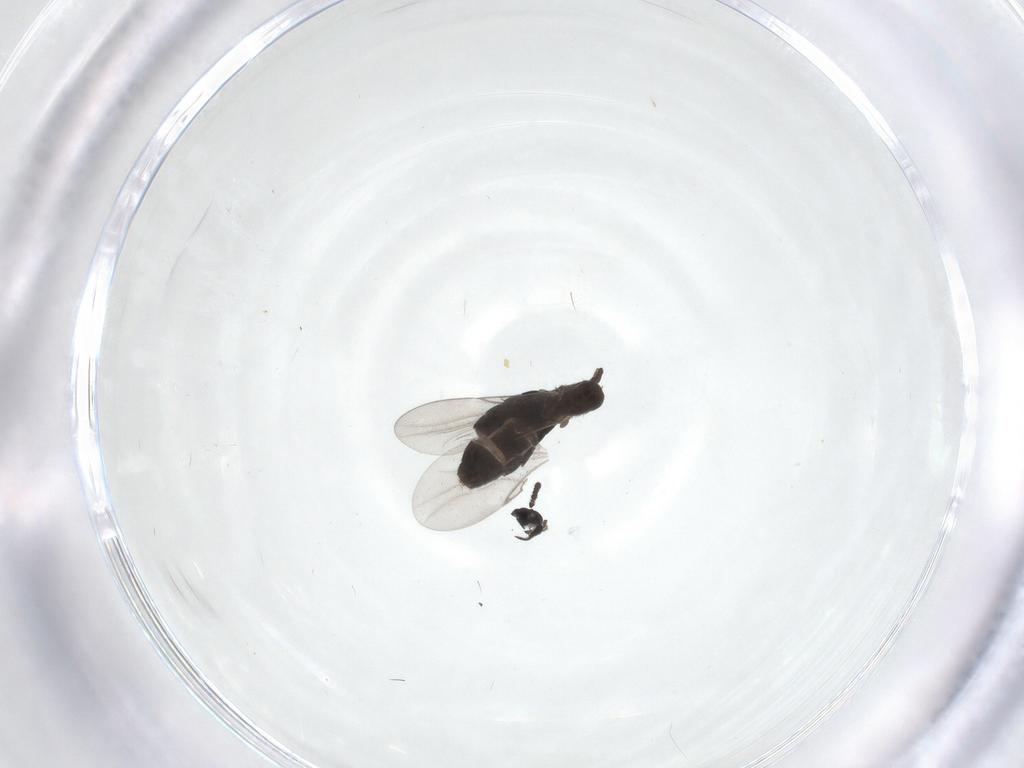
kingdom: Animalia
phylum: Arthropoda
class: Insecta
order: Diptera
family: Scatopsidae
